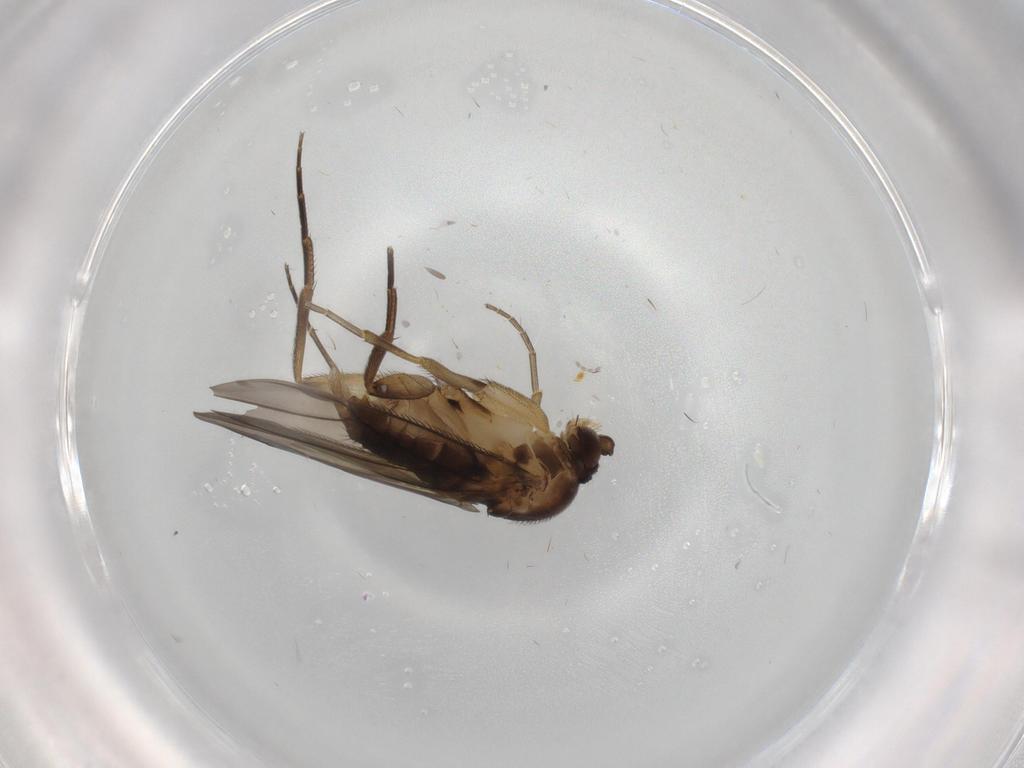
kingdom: Animalia
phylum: Arthropoda
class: Insecta
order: Diptera
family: Phoridae
